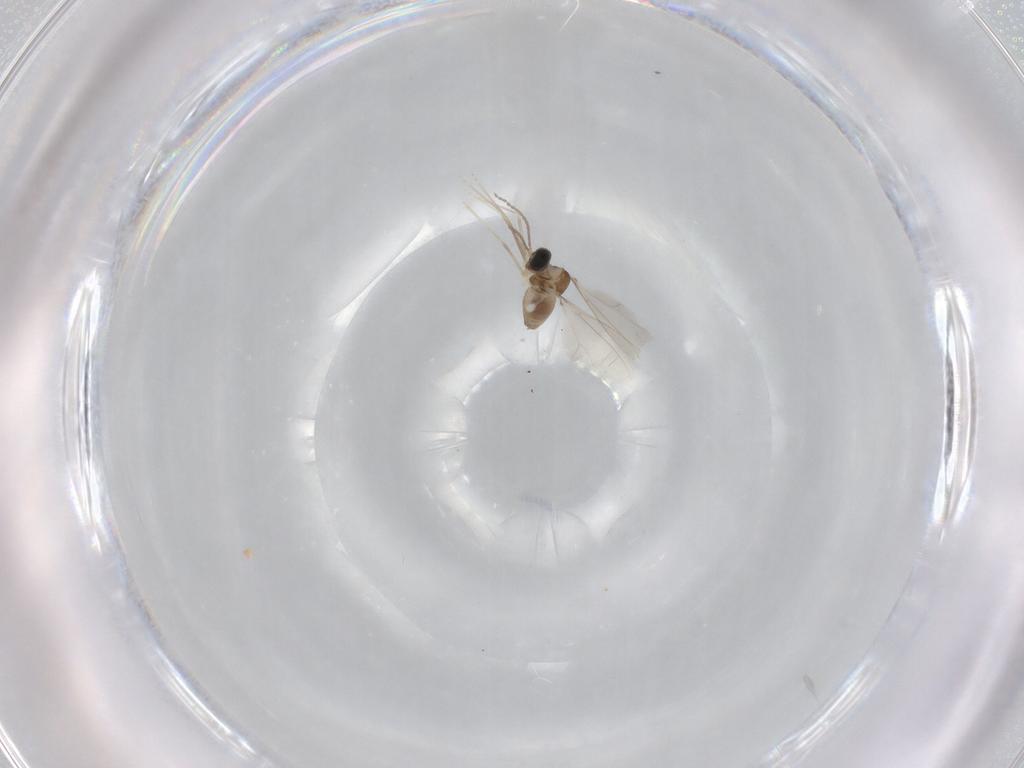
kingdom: Animalia
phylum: Arthropoda
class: Insecta
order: Diptera
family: Cecidomyiidae
